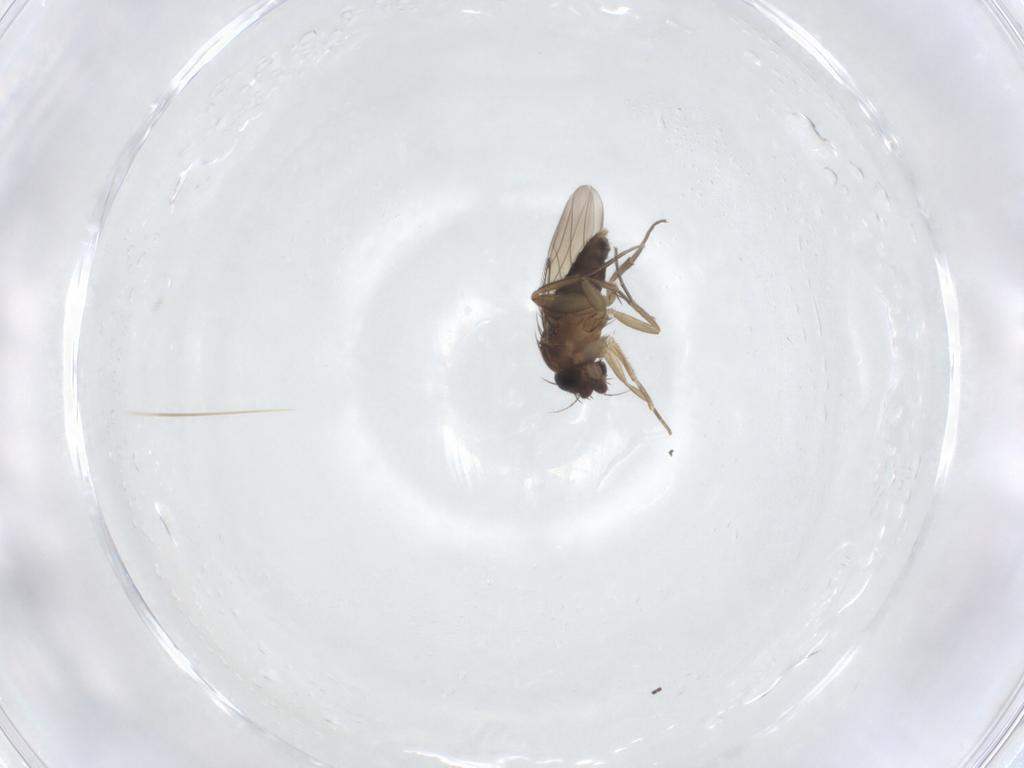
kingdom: Animalia
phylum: Arthropoda
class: Insecta
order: Diptera
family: Phoridae
